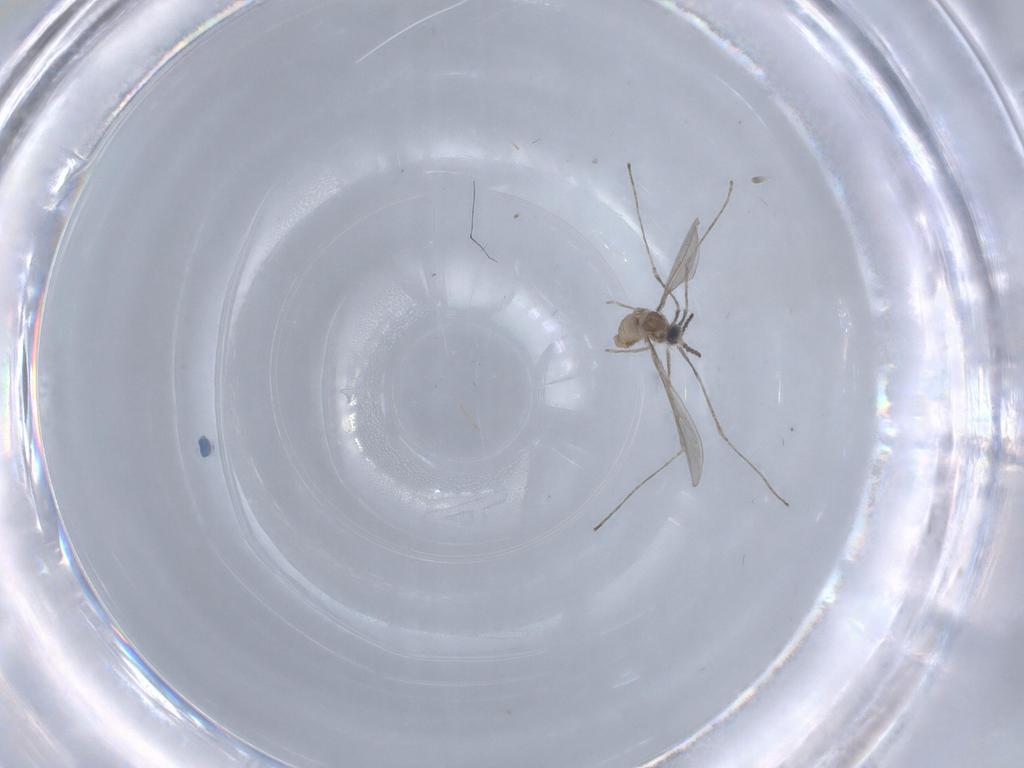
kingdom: Animalia
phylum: Arthropoda
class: Insecta
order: Diptera
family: Cecidomyiidae
